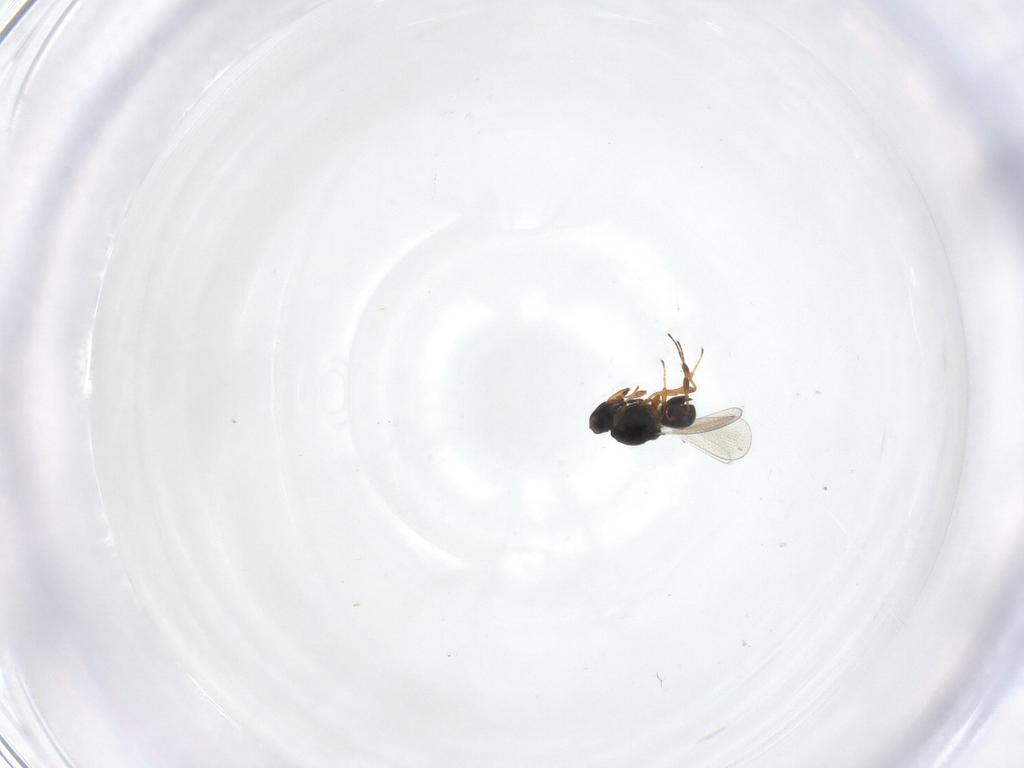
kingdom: Animalia
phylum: Arthropoda
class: Insecta
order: Hymenoptera
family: Platygastridae
